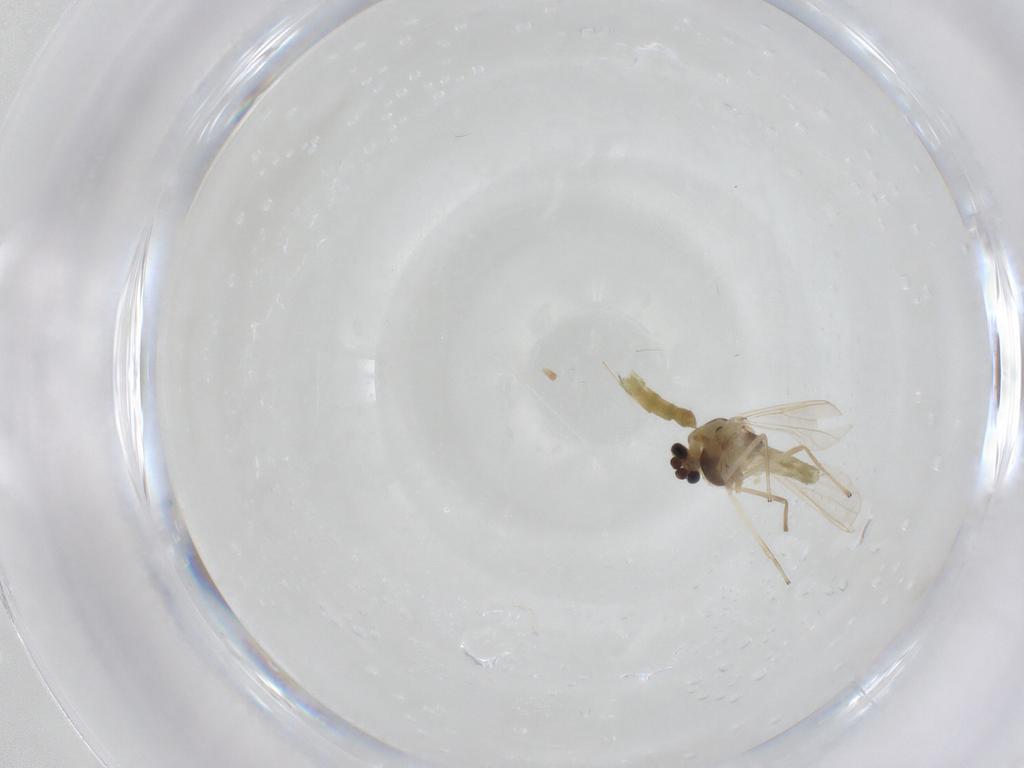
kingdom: Animalia
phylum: Arthropoda
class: Insecta
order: Diptera
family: Chironomidae
